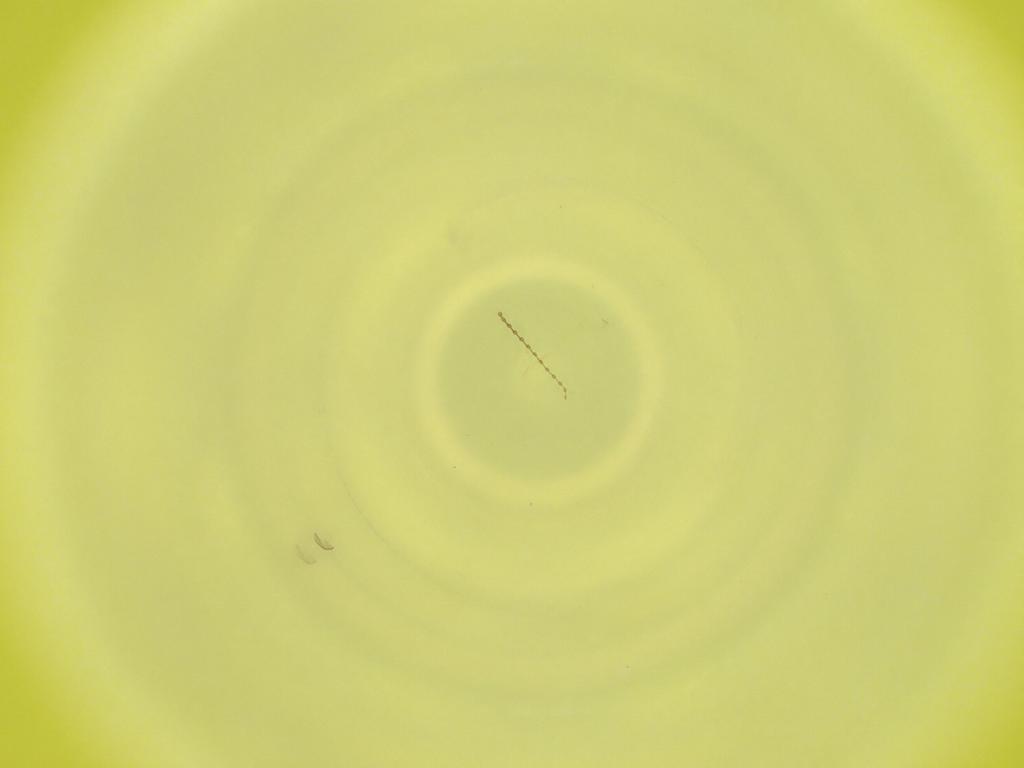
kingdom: Animalia
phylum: Arthropoda
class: Insecta
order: Diptera
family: Cecidomyiidae
